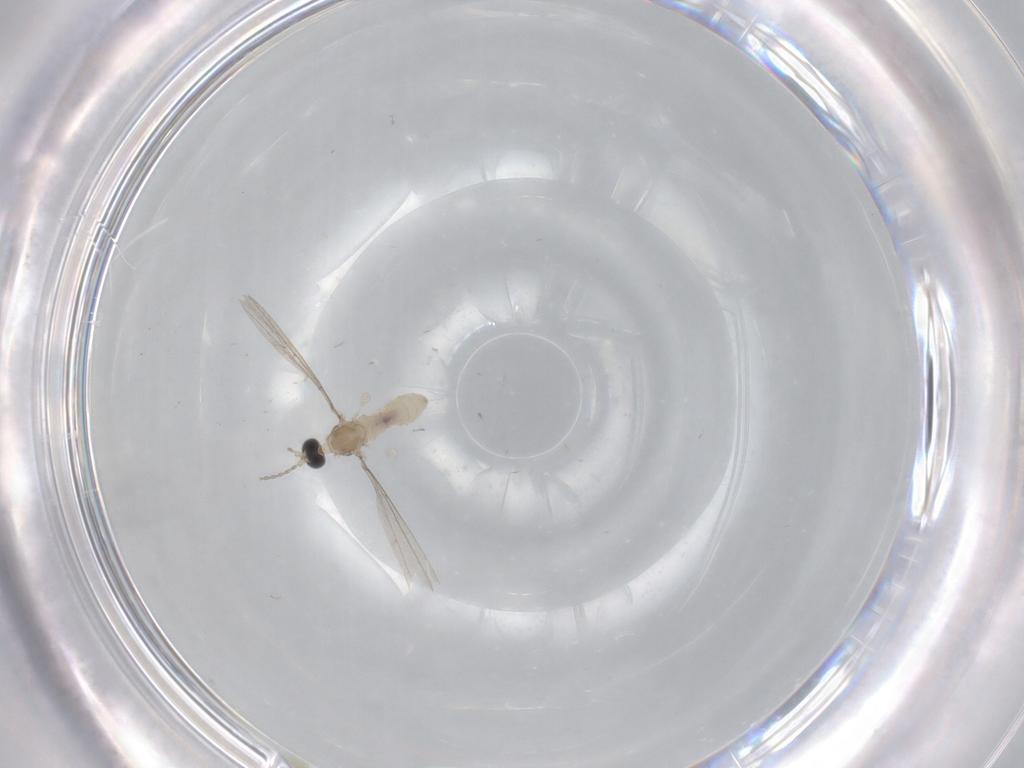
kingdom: Animalia
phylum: Arthropoda
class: Insecta
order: Diptera
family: Cecidomyiidae
